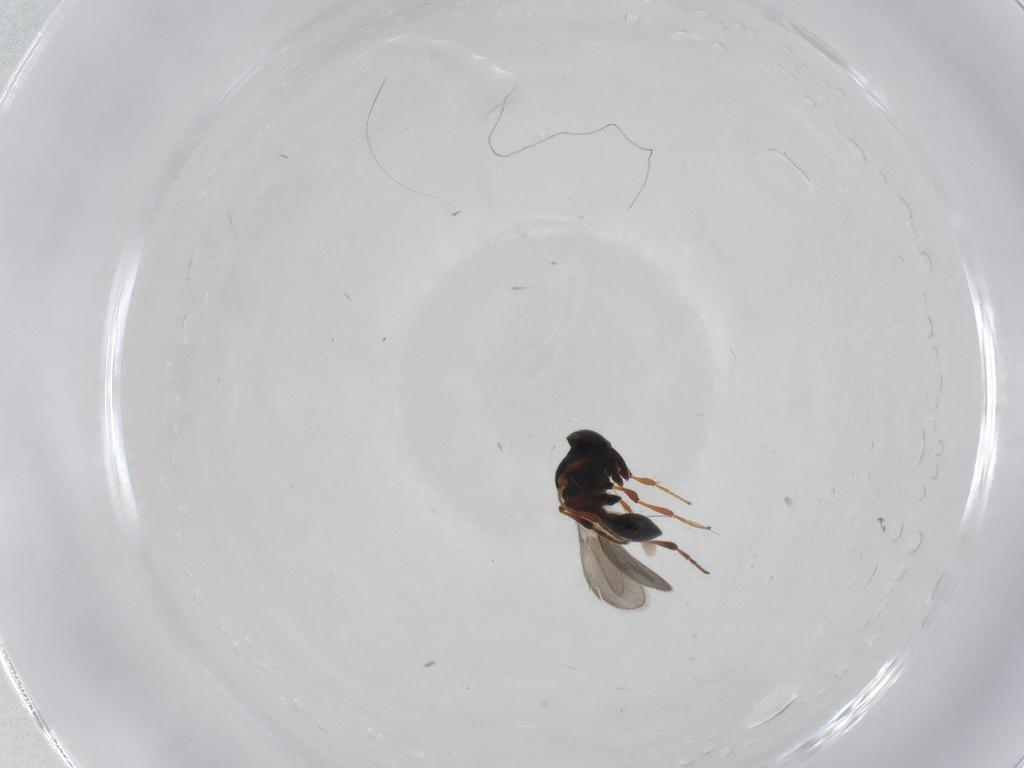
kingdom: Animalia
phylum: Arthropoda
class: Insecta
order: Hymenoptera
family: Platygastridae
